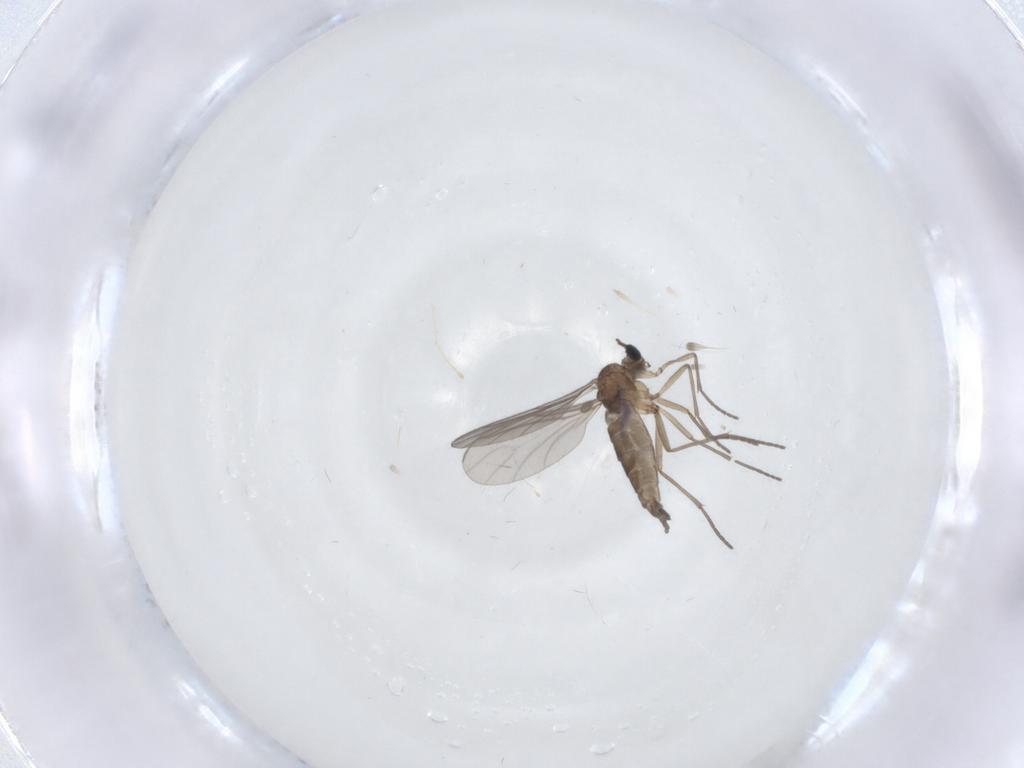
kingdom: Animalia
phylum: Arthropoda
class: Insecta
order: Diptera
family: Sciaridae
